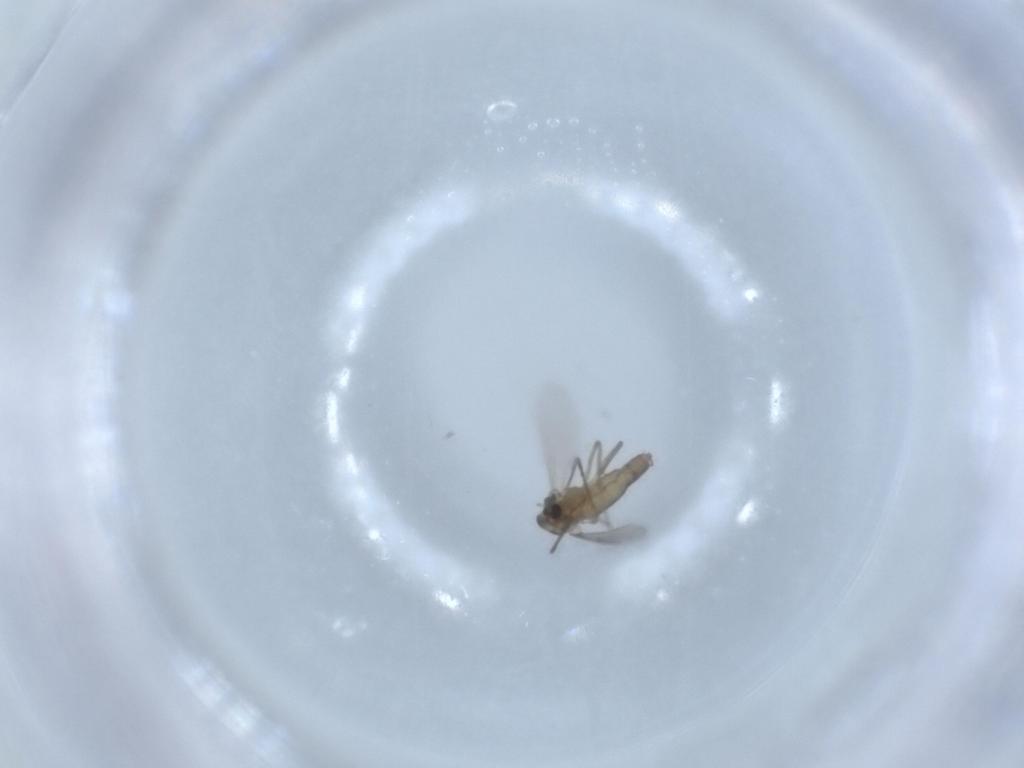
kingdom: Animalia
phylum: Arthropoda
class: Insecta
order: Diptera
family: Chironomidae
